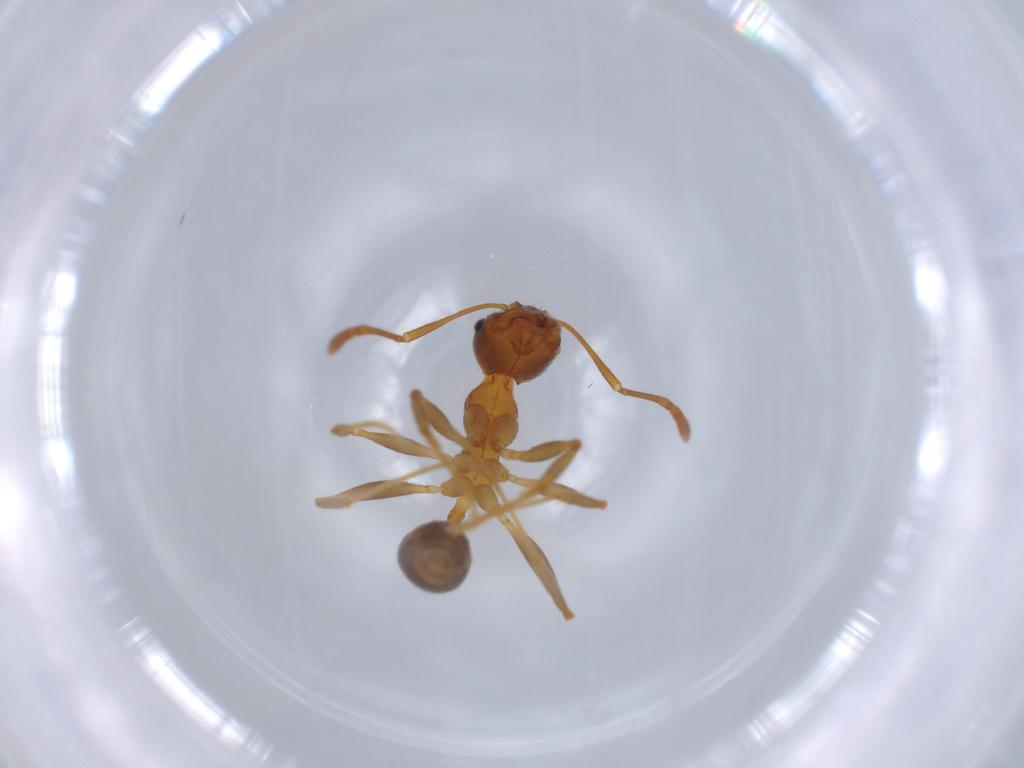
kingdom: Animalia
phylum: Arthropoda
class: Insecta
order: Hymenoptera
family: Formicidae
